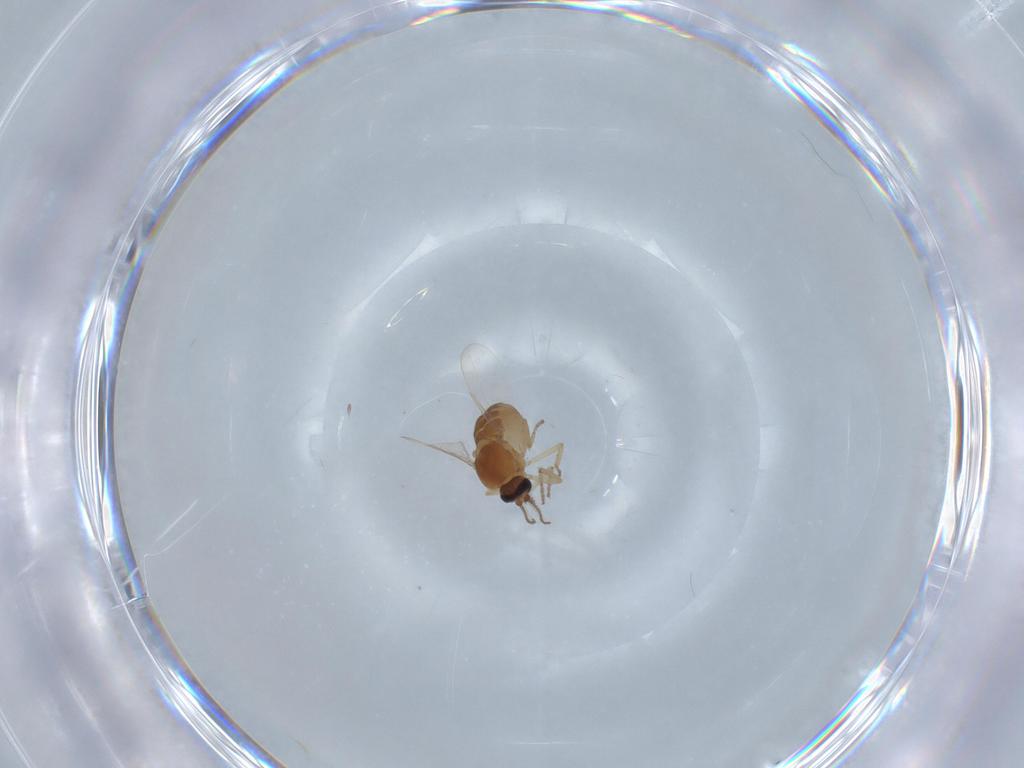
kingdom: Animalia
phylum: Arthropoda
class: Insecta
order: Diptera
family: Ceratopogonidae
